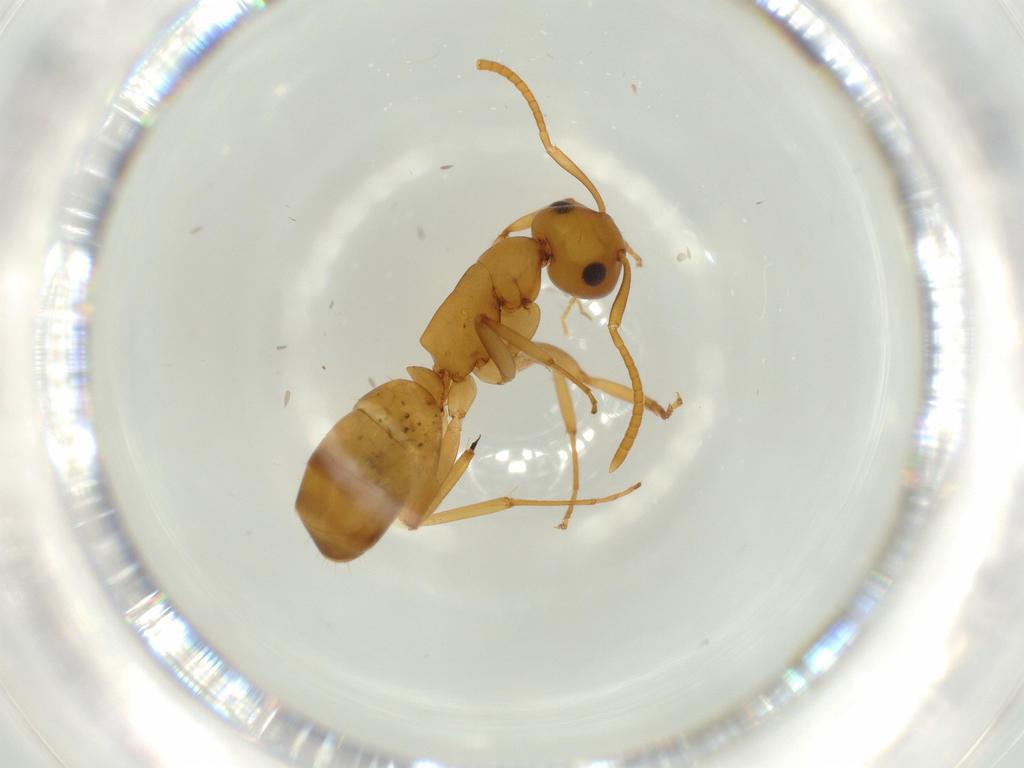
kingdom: Animalia
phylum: Arthropoda
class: Insecta
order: Hymenoptera
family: Formicidae
